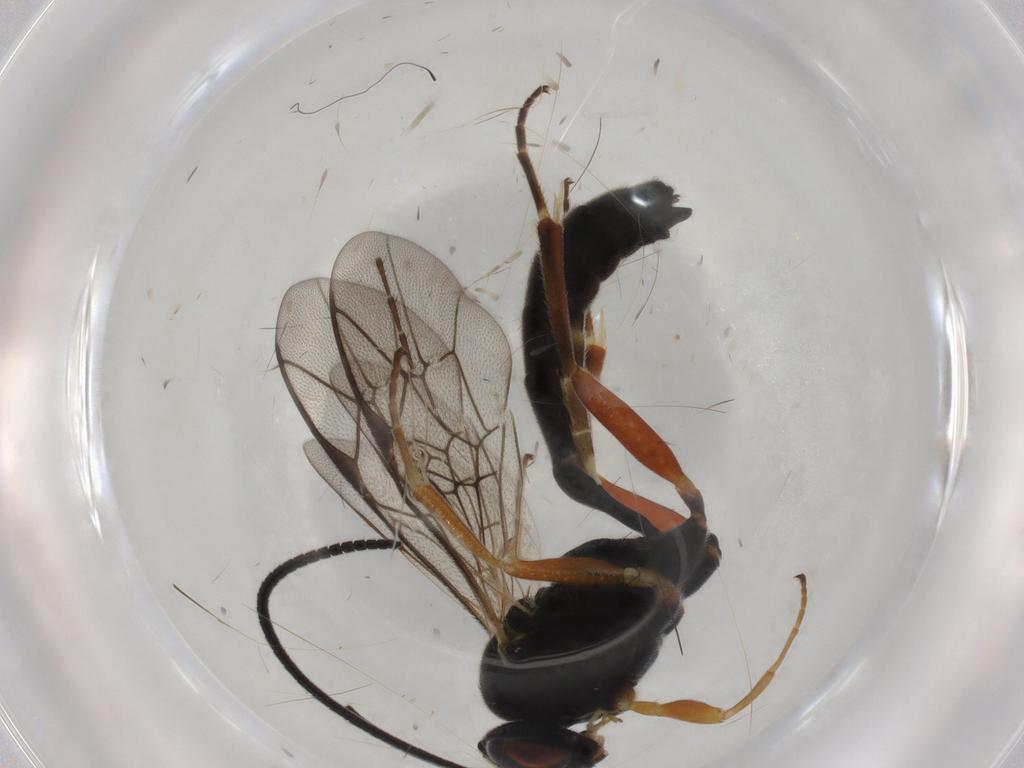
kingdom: Animalia
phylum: Arthropoda
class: Insecta
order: Hymenoptera
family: Ichneumonidae
